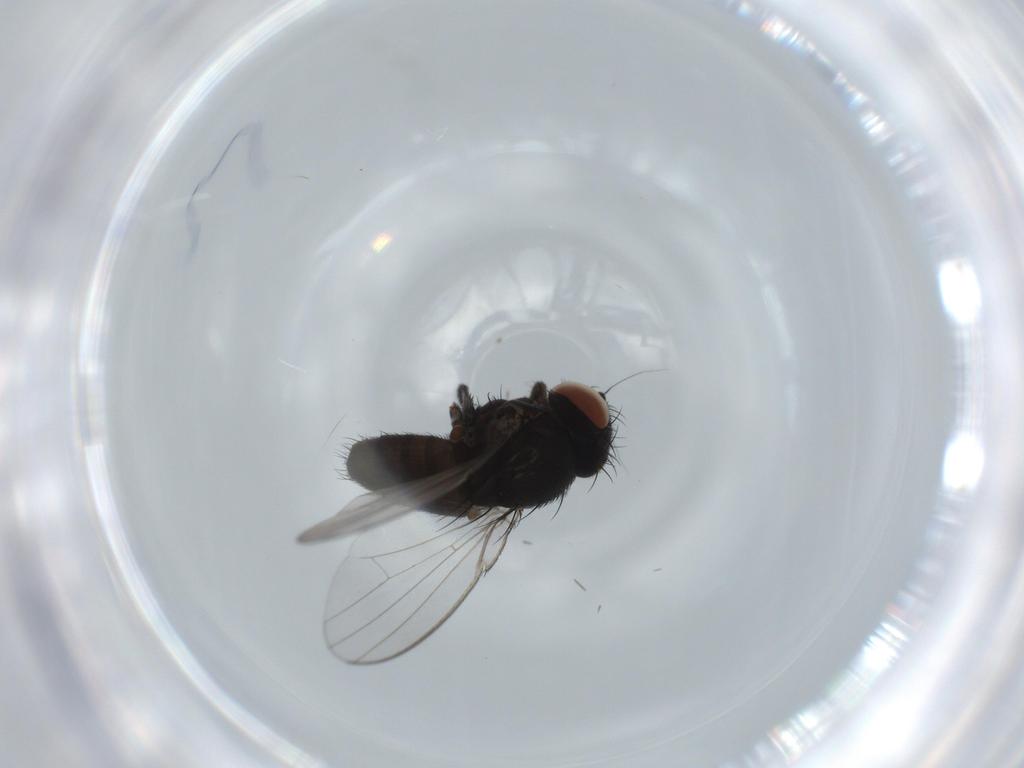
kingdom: Animalia
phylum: Arthropoda
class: Insecta
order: Diptera
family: Milichiidae
